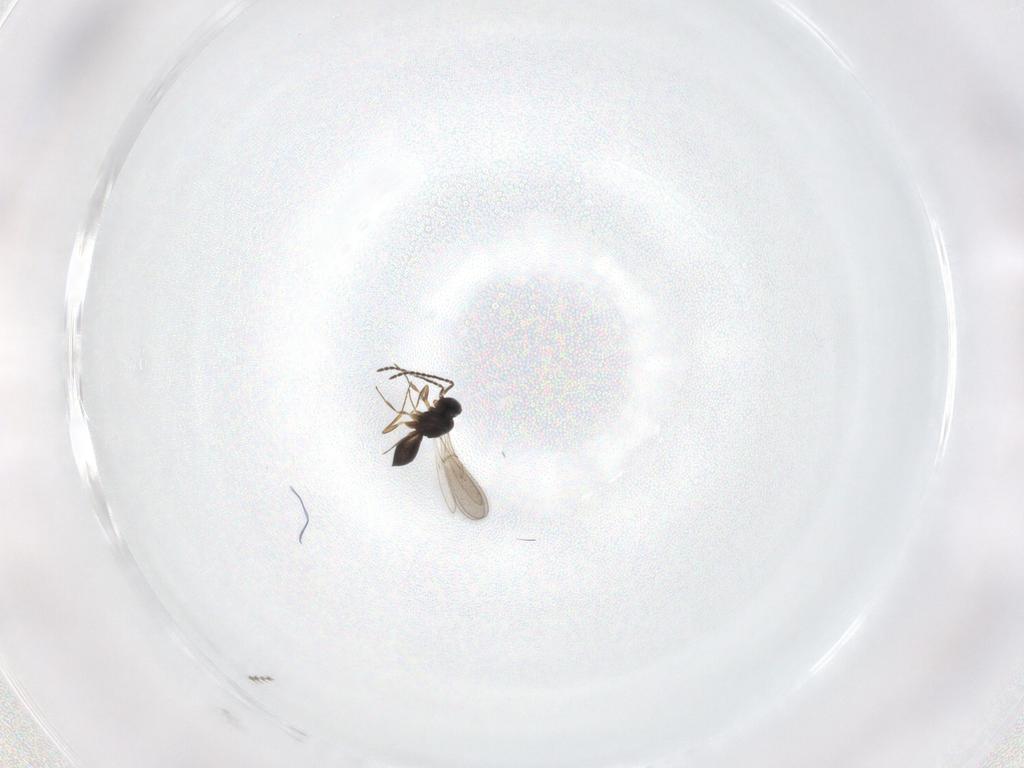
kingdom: Animalia
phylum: Arthropoda
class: Insecta
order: Hymenoptera
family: Scelionidae
